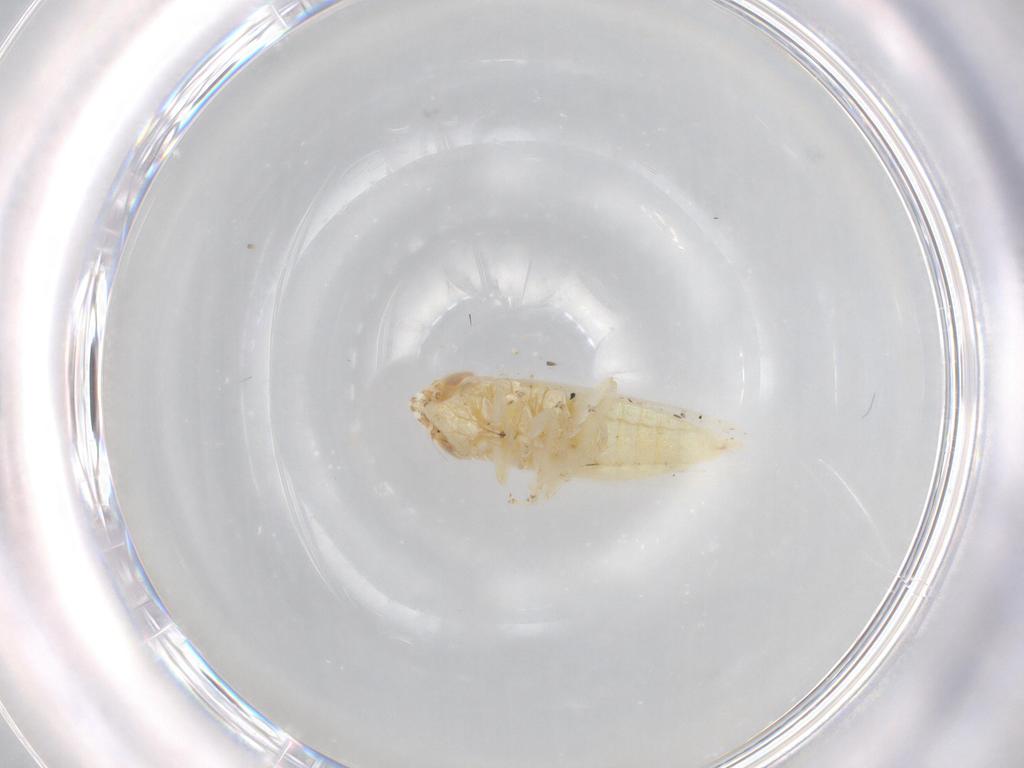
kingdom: Animalia
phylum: Arthropoda
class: Insecta
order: Hemiptera
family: Cicadellidae
